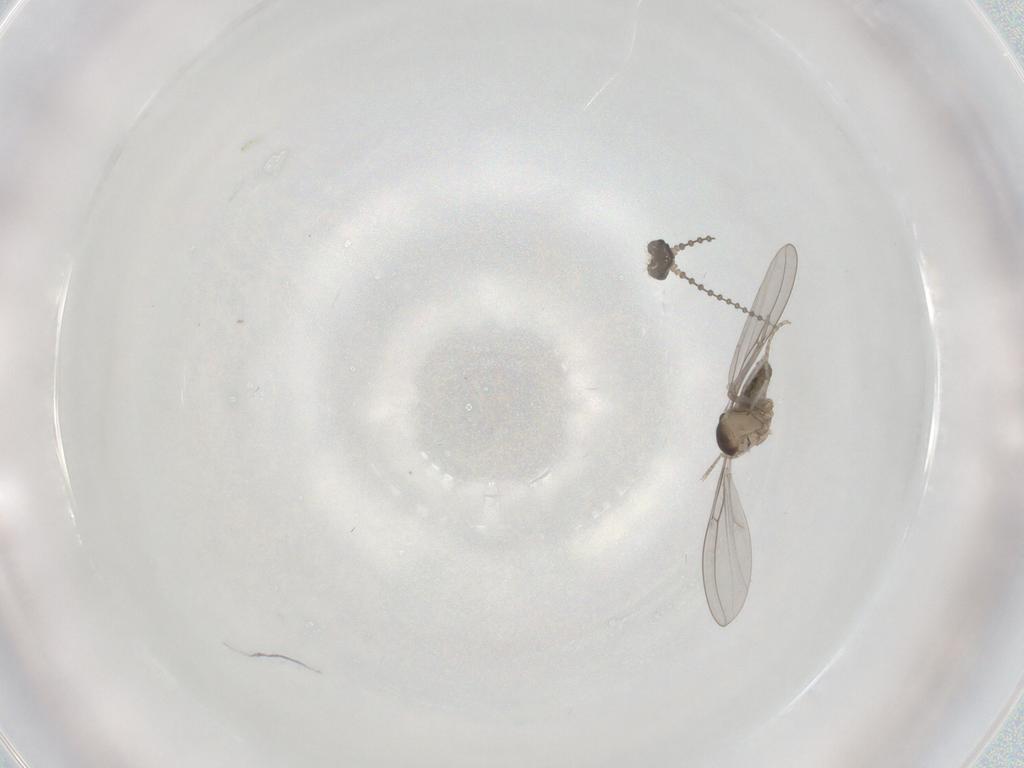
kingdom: Animalia
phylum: Arthropoda
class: Insecta
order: Diptera
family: Cecidomyiidae
